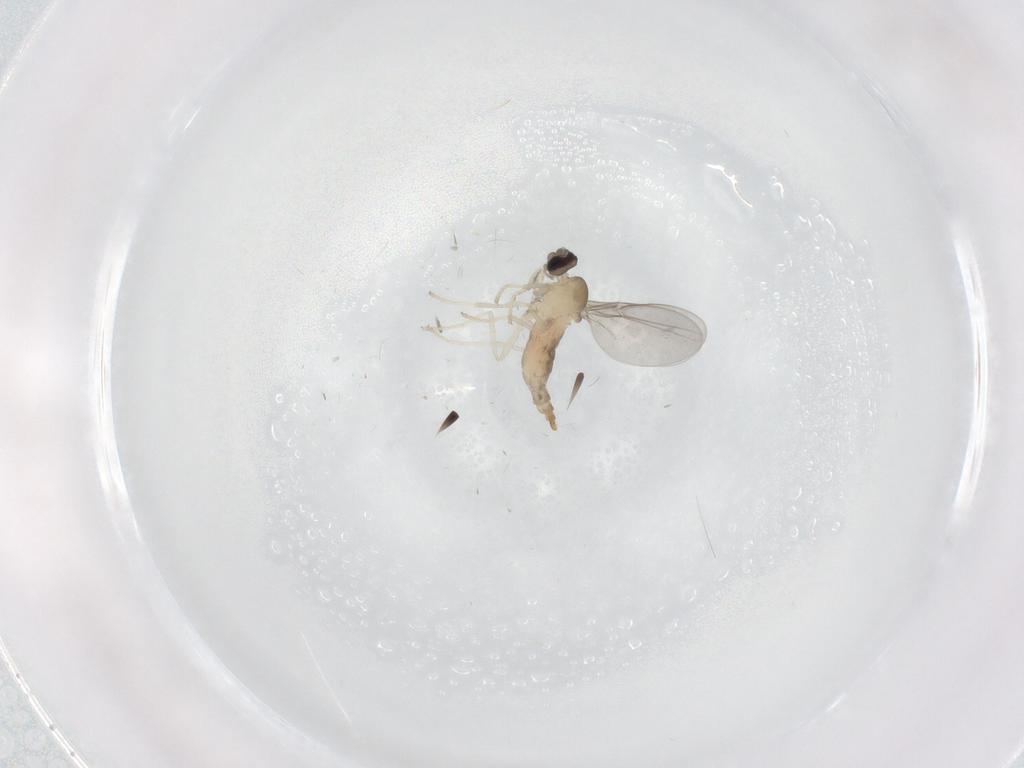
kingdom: Animalia
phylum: Arthropoda
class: Insecta
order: Diptera
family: Cecidomyiidae
